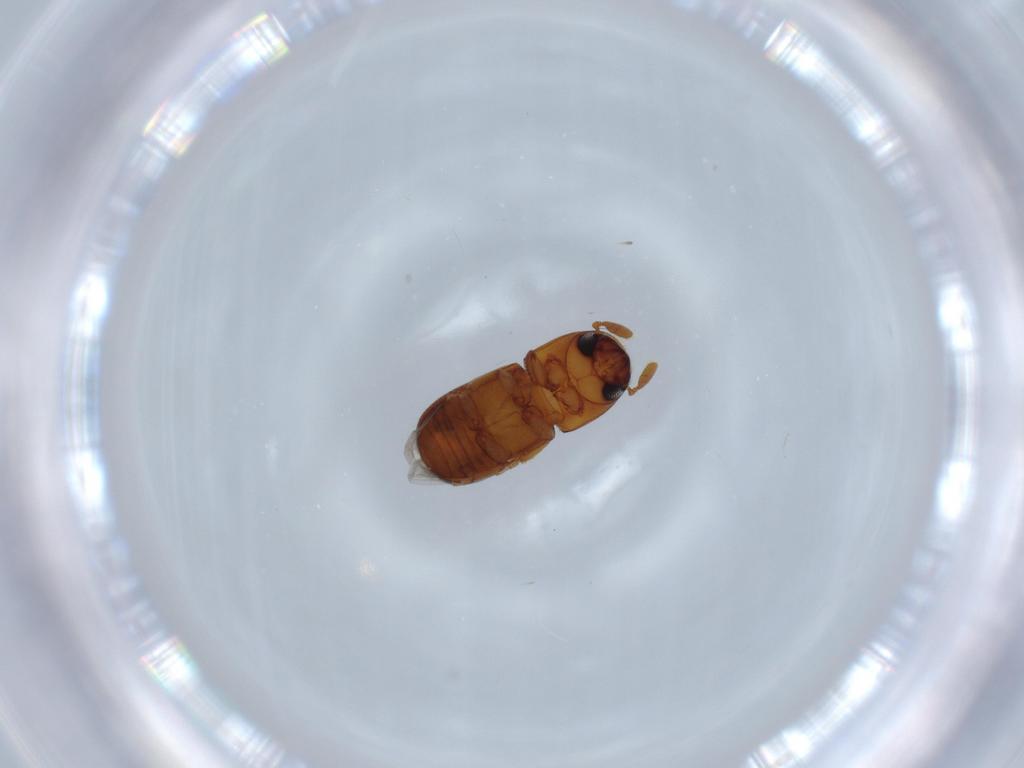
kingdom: Animalia
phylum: Arthropoda
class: Insecta
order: Coleoptera
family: Curculionidae
